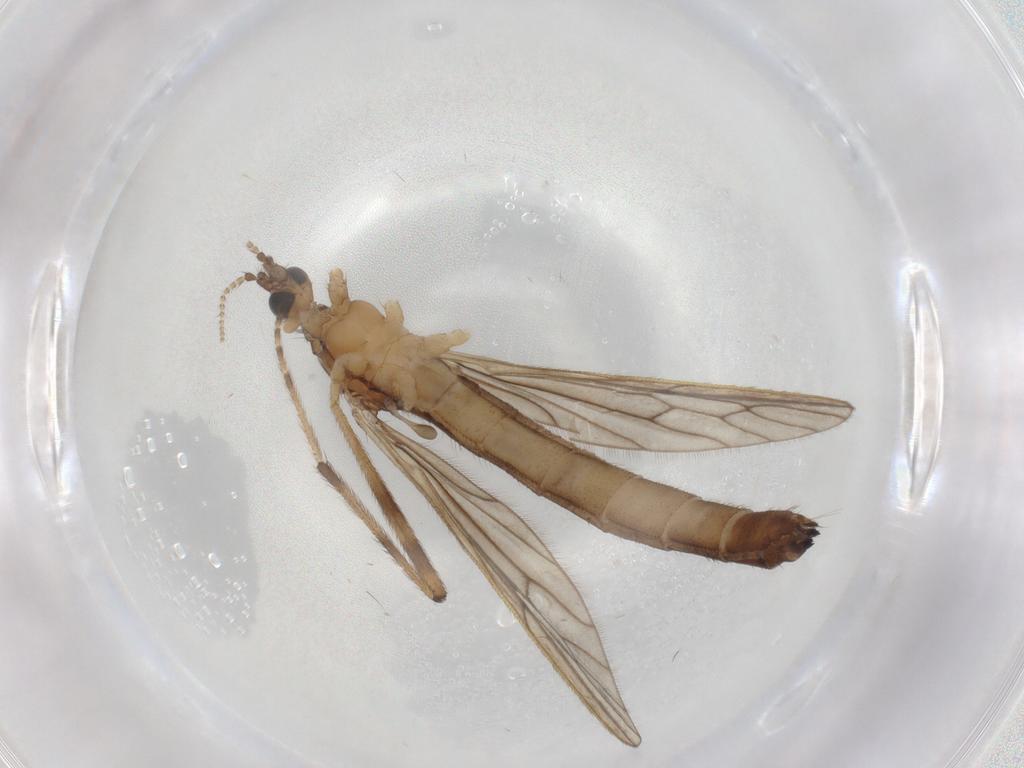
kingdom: Animalia
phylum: Arthropoda
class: Insecta
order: Diptera
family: Limoniidae
